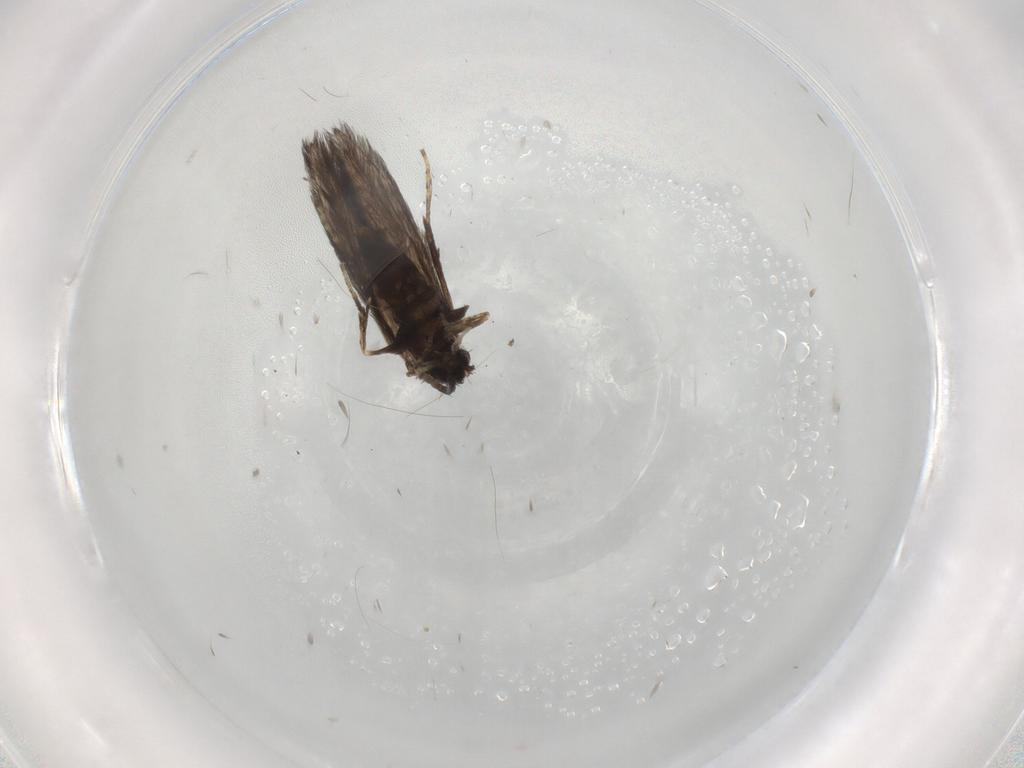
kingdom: Animalia
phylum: Arthropoda
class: Insecta
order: Trichoptera
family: Hydroptilidae
